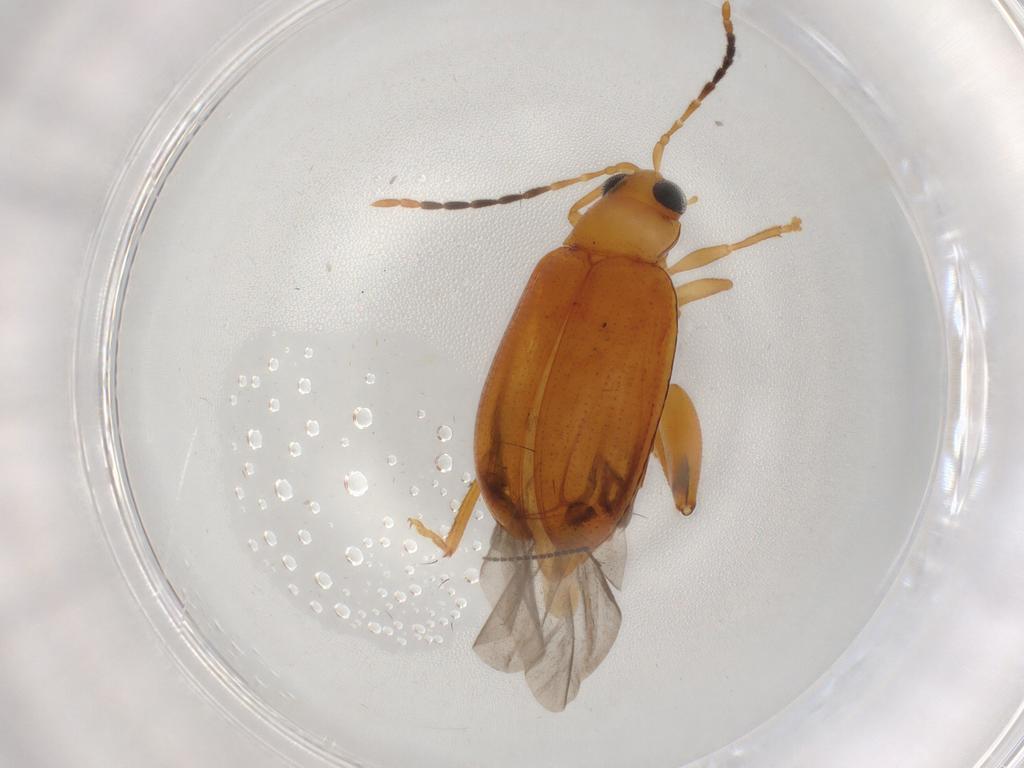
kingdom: Animalia
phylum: Arthropoda
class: Insecta
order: Coleoptera
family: Chrysomelidae
